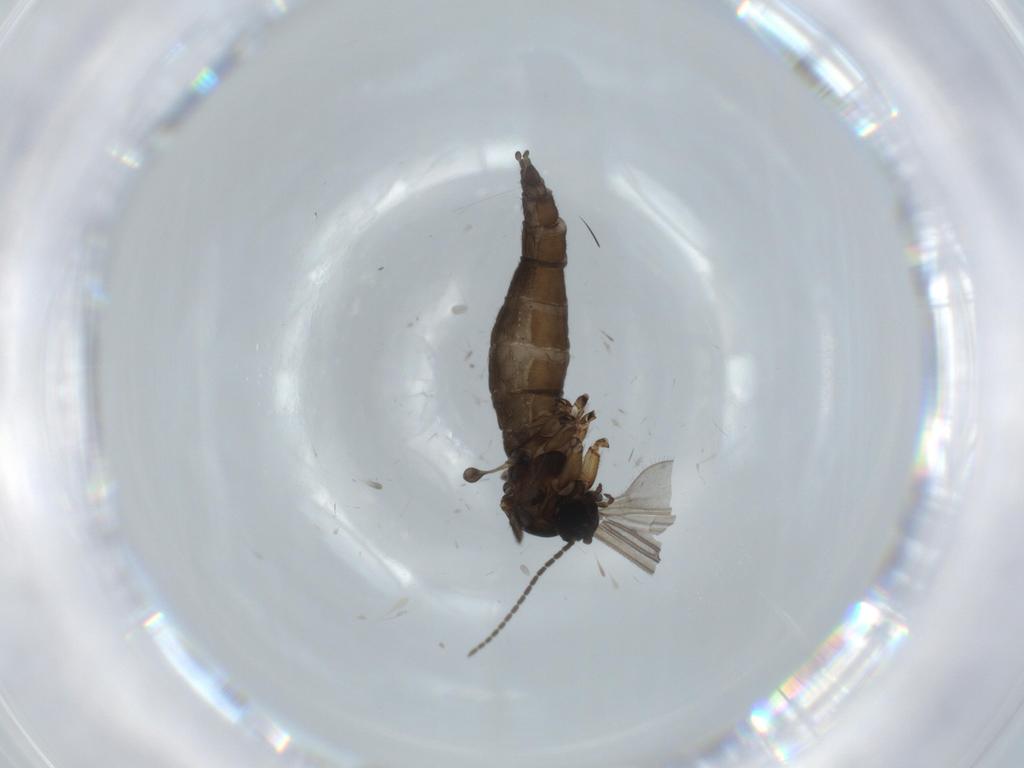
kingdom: Animalia
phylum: Arthropoda
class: Insecta
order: Diptera
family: Sciaridae
